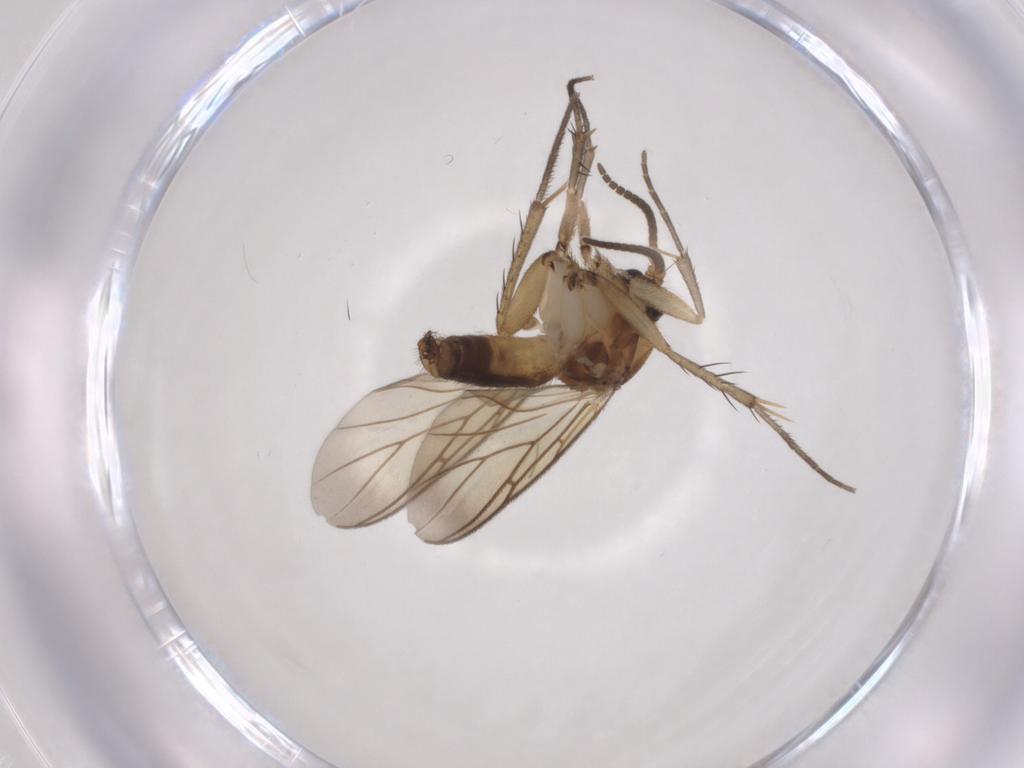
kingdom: Animalia
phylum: Arthropoda
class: Insecta
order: Diptera
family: Mycetophilidae
